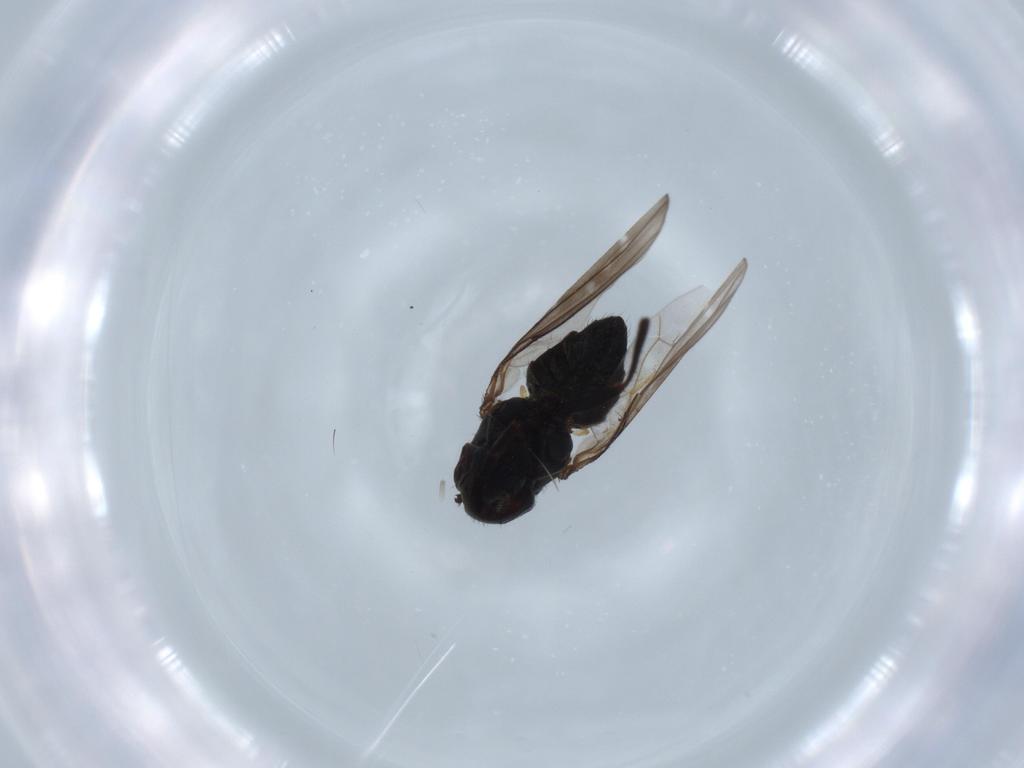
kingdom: Animalia
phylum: Arthropoda
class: Insecta
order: Diptera
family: Ephydridae
